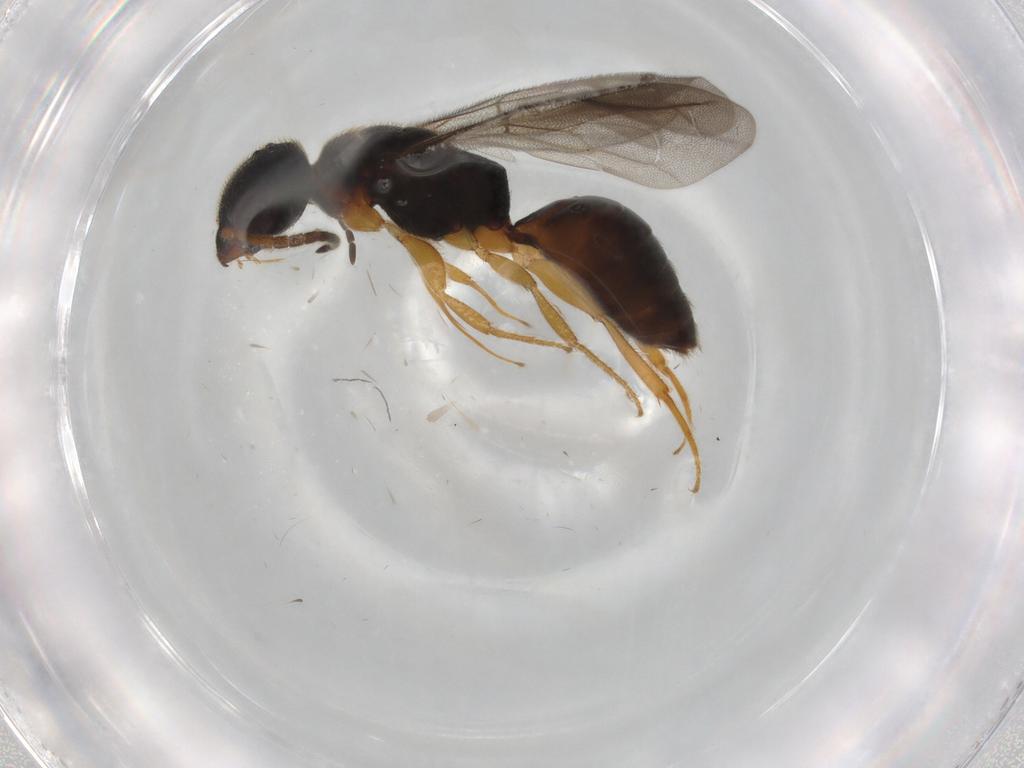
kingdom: Animalia
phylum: Arthropoda
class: Insecta
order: Hymenoptera
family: Bethylidae
